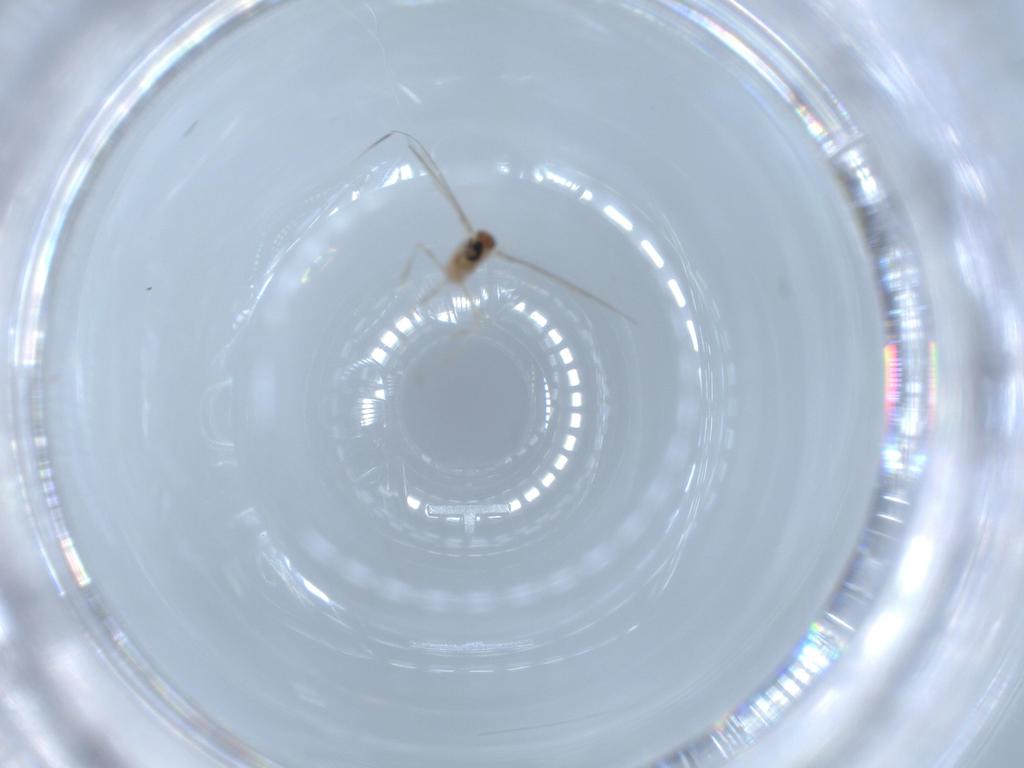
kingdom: Animalia
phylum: Arthropoda
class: Insecta
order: Diptera
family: Cecidomyiidae
